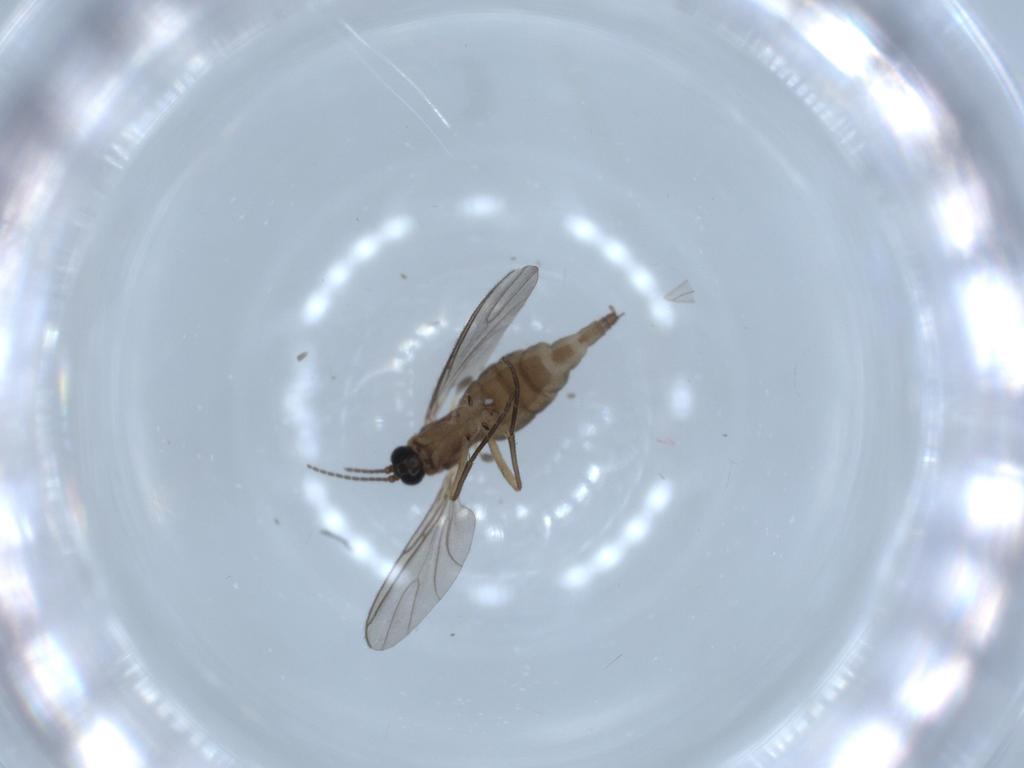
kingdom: Animalia
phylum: Arthropoda
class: Insecta
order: Diptera
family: Sciaridae
